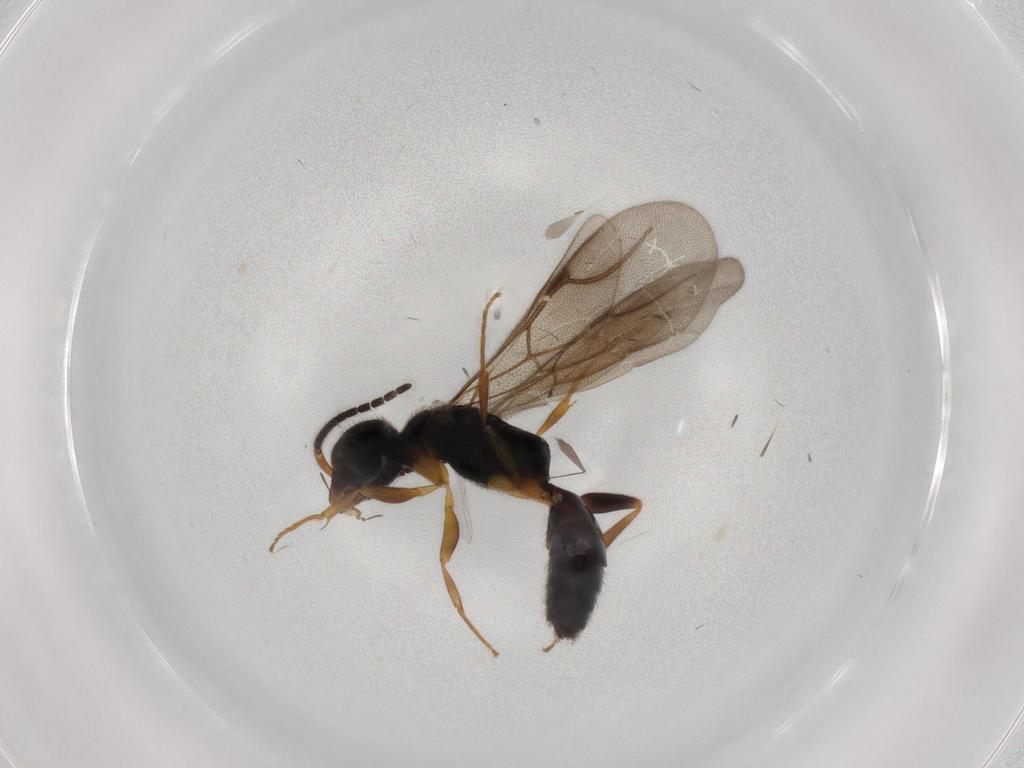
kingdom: Animalia
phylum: Arthropoda
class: Insecta
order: Hymenoptera
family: Bethylidae
